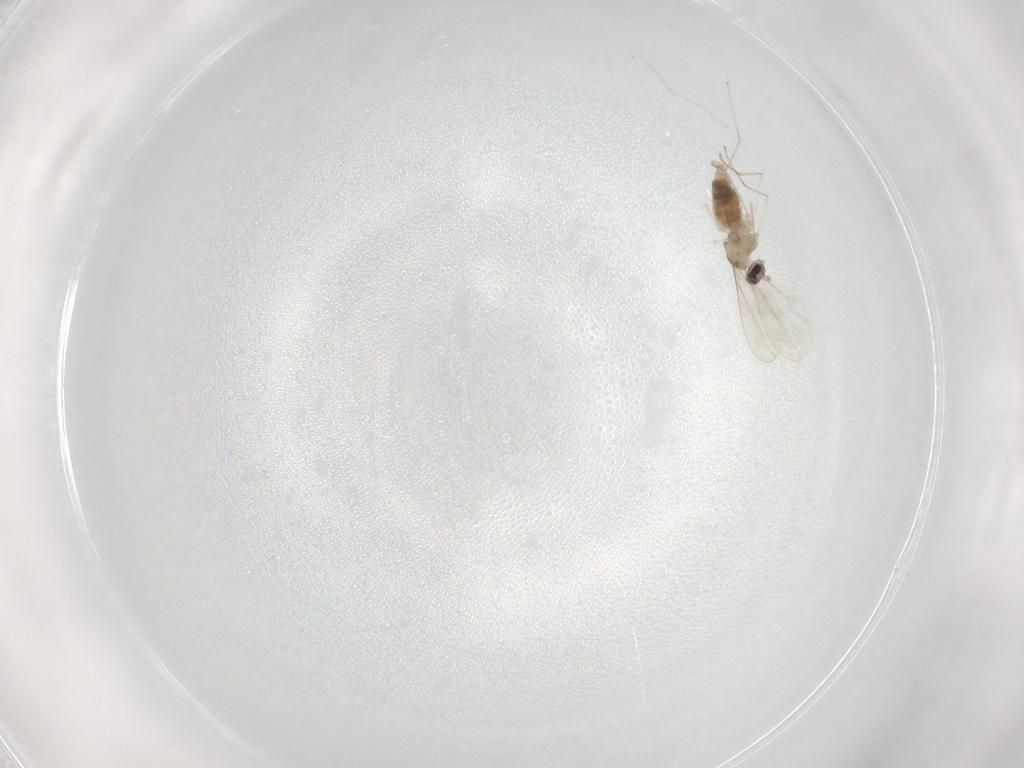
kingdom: Animalia
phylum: Arthropoda
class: Insecta
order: Diptera
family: Chironomidae
